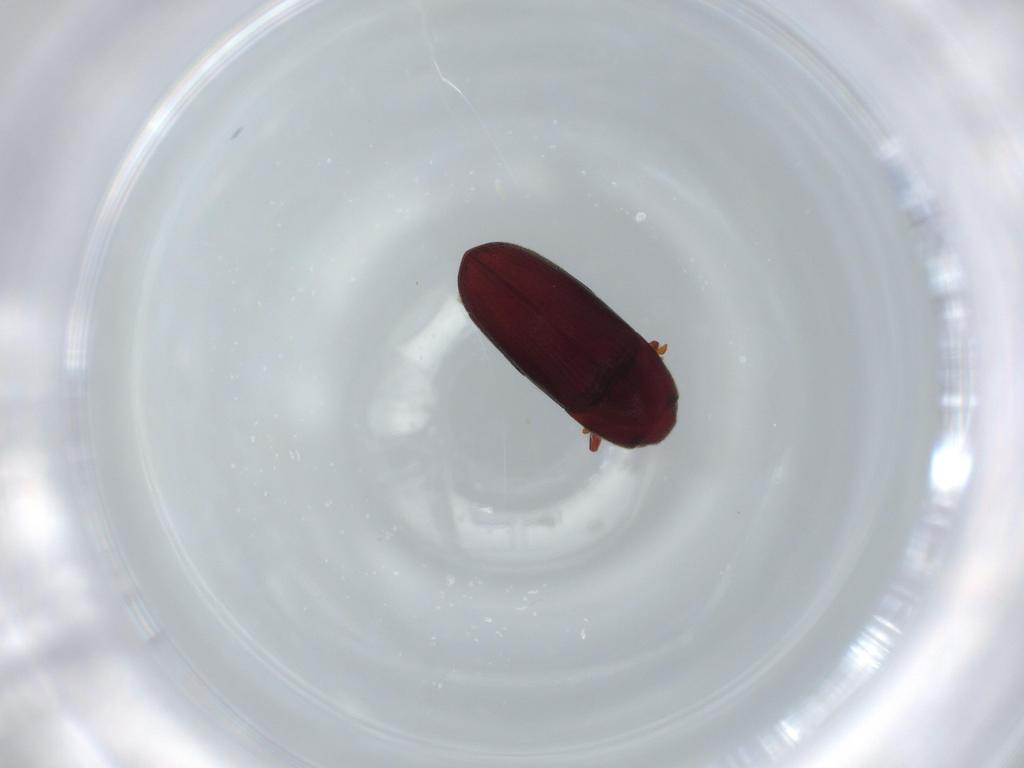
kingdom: Animalia
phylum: Arthropoda
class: Insecta
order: Coleoptera
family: Throscidae
